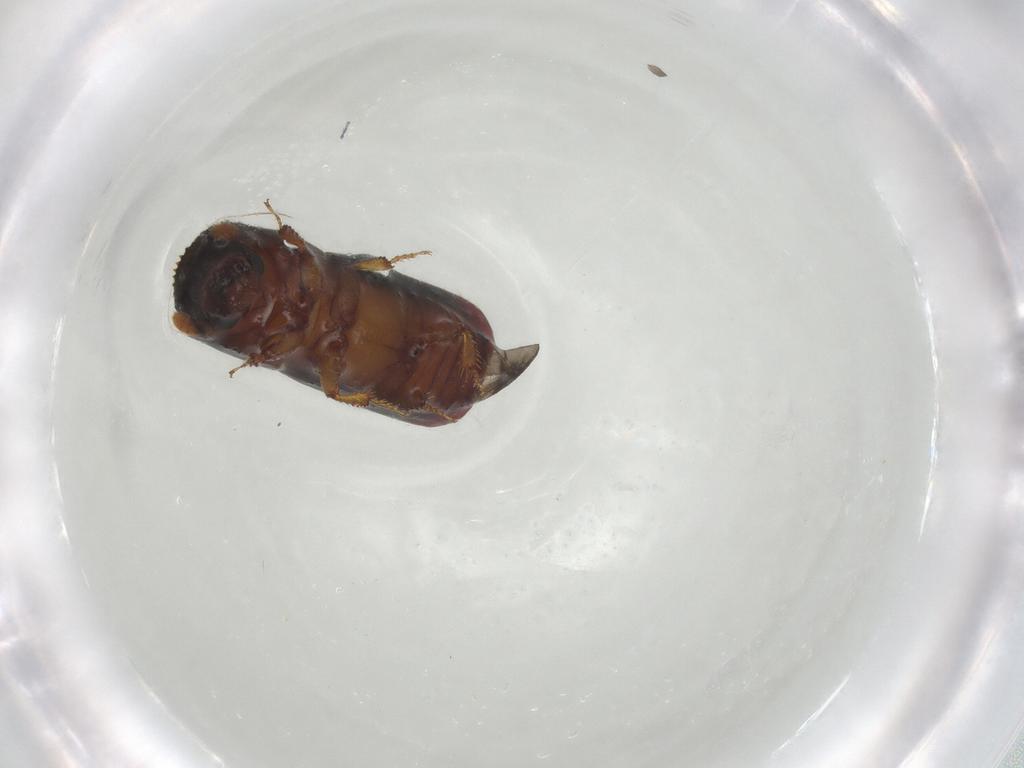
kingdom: Animalia
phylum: Arthropoda
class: Insecta
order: Coleoptera
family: Curculionidae
